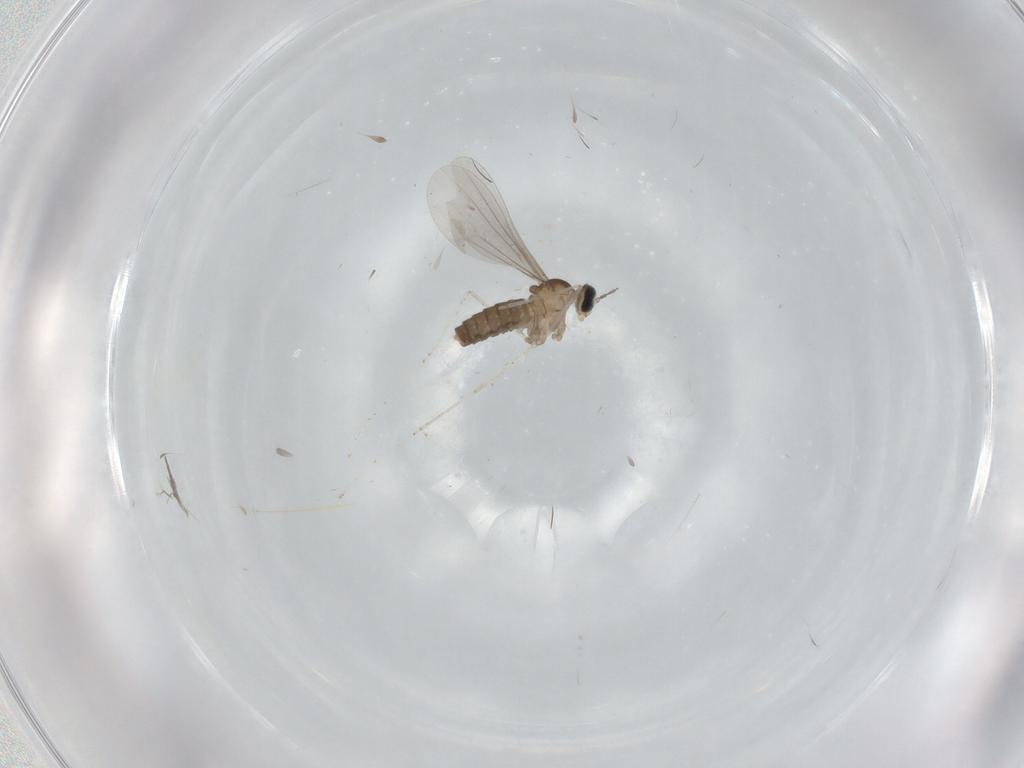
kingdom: Animalia
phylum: Arthropoda
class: Insecta
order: Diptera
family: Cecidomyiidae
